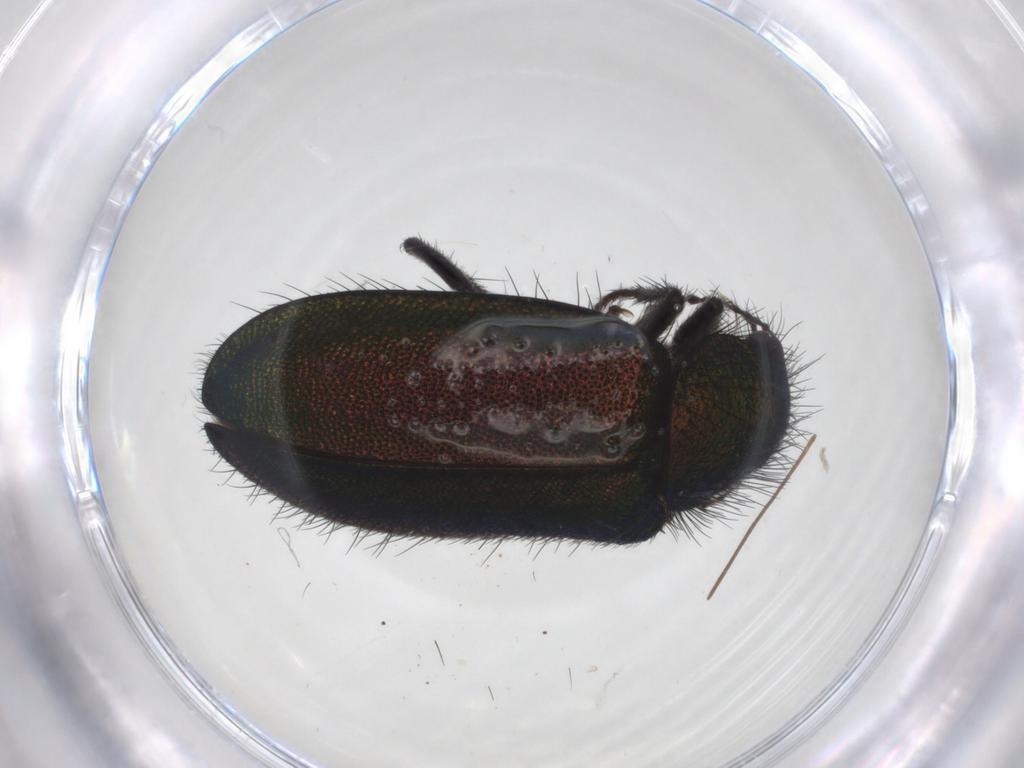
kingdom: Animalia
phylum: Arthropoda
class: Insecta
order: Coleoptera
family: Melyridae
